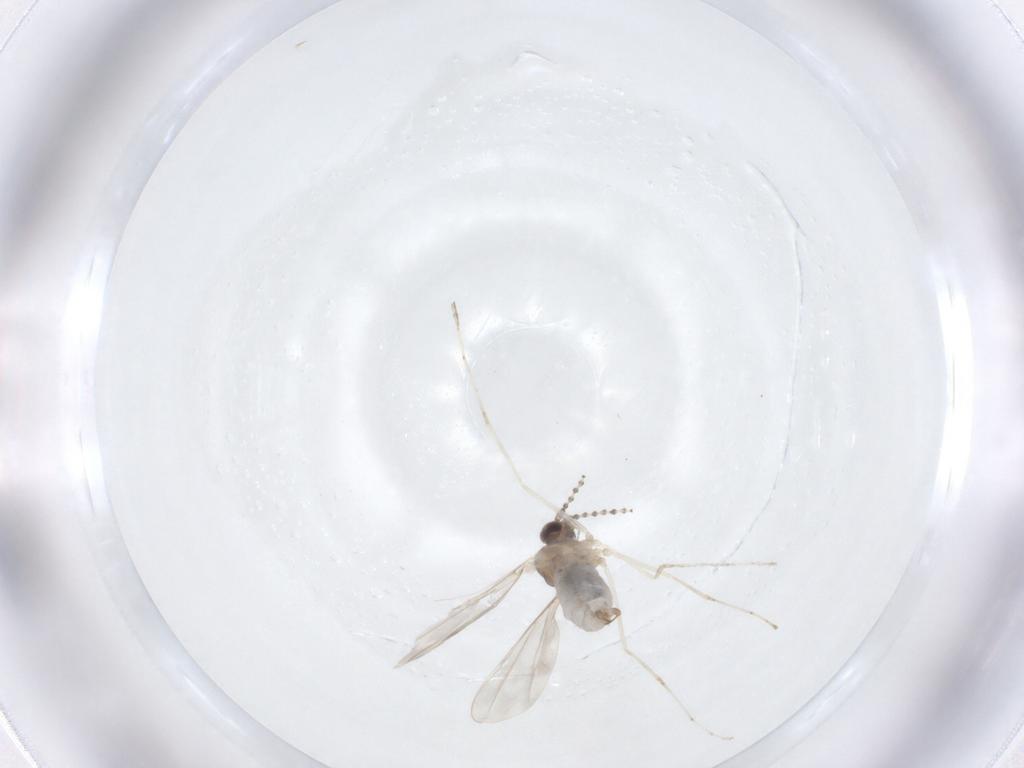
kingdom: Animalia
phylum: Arthropoda
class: Insecta
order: Diptera
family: Cecidomyiidae
